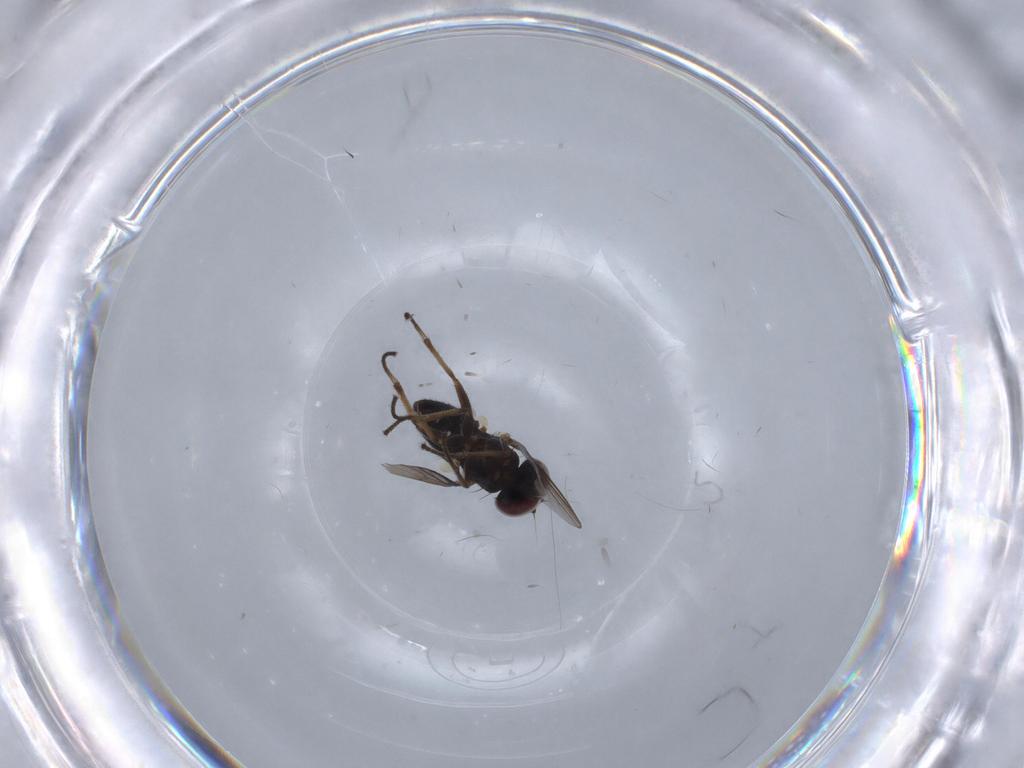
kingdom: Animalia
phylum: Arthropoda
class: Insecta
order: Diptera
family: Dolichopodidae
